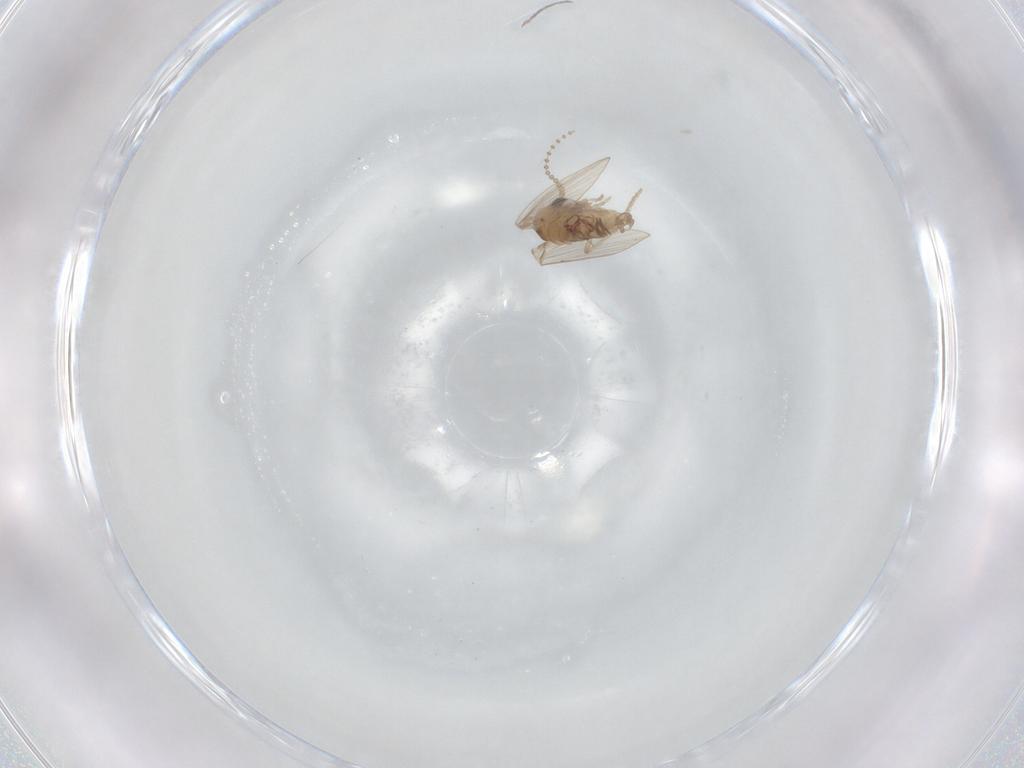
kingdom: Animalia
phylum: Arthropoda
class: Insecta
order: Diptera
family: Psychodidae
